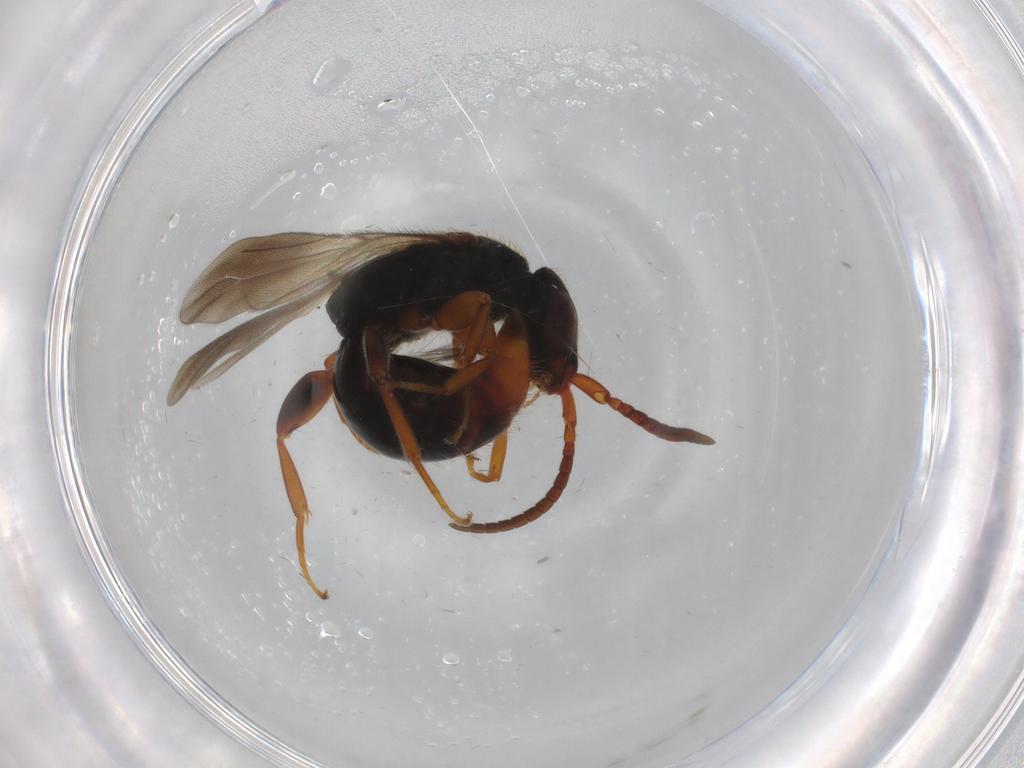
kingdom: Animalia
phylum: Arthropoda
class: Insecta
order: Hymenoptera
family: Bethylidae
